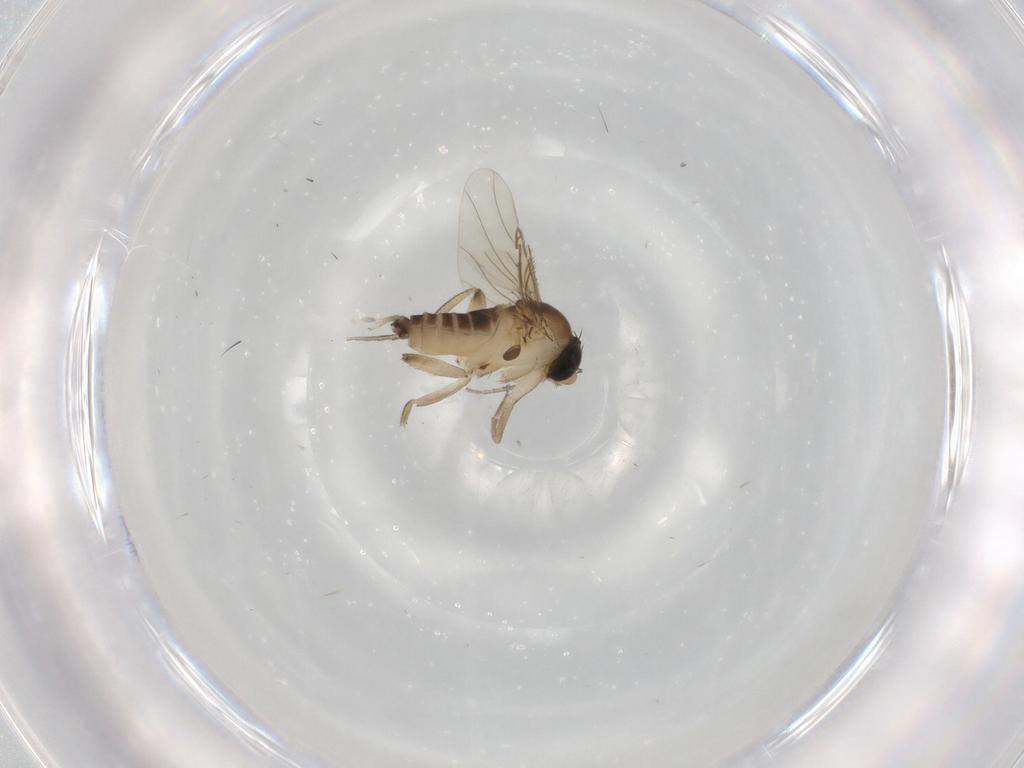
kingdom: Animalia
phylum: Arthropoda
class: Insecta
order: Diptera
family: Phoridae
